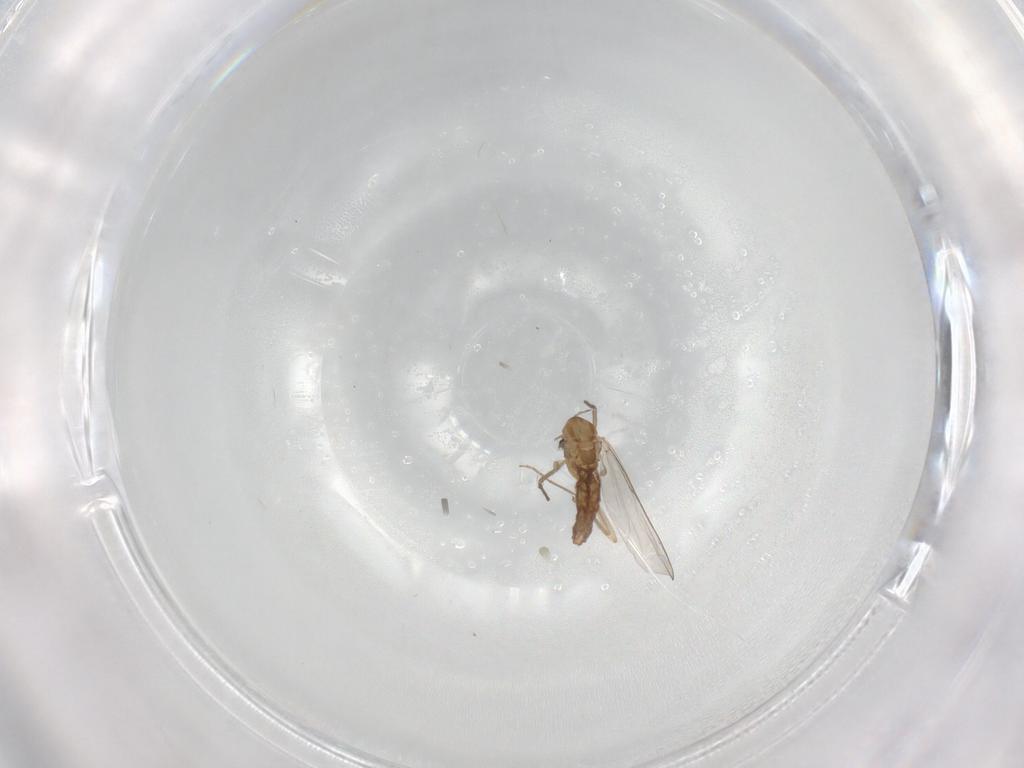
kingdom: Animalia
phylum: Arthropoda
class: Insecta
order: Diptera
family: Chironomidae
